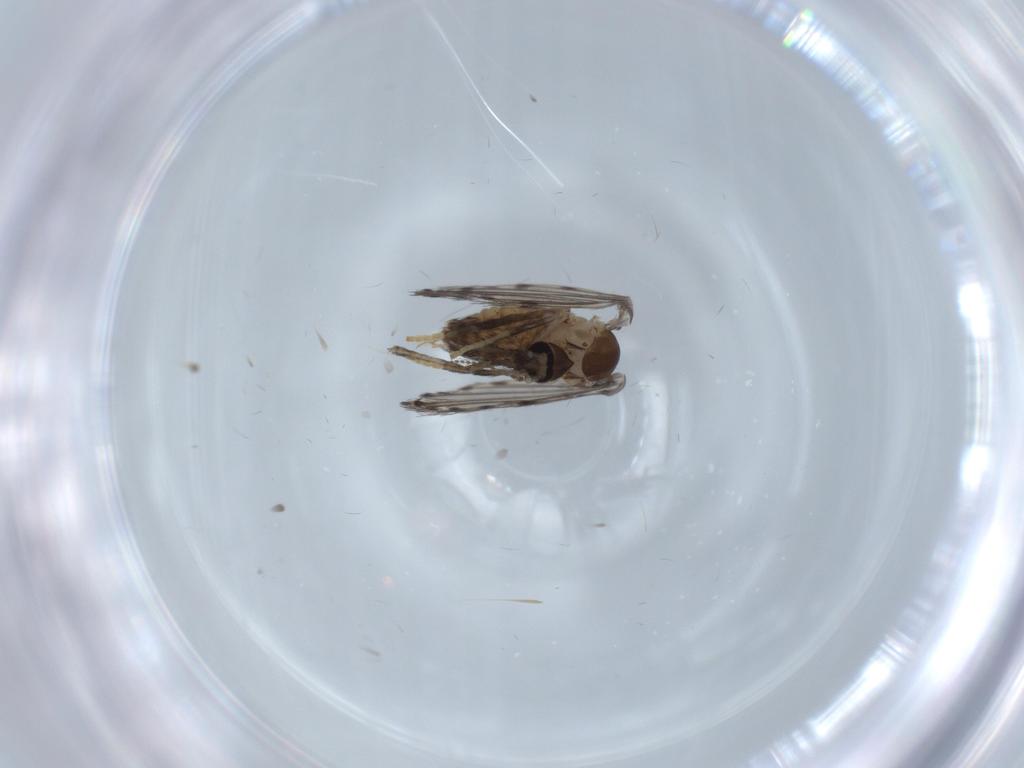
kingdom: Animalia
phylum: Arthropoda
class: Insecta
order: Diptera
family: Psychodidae
